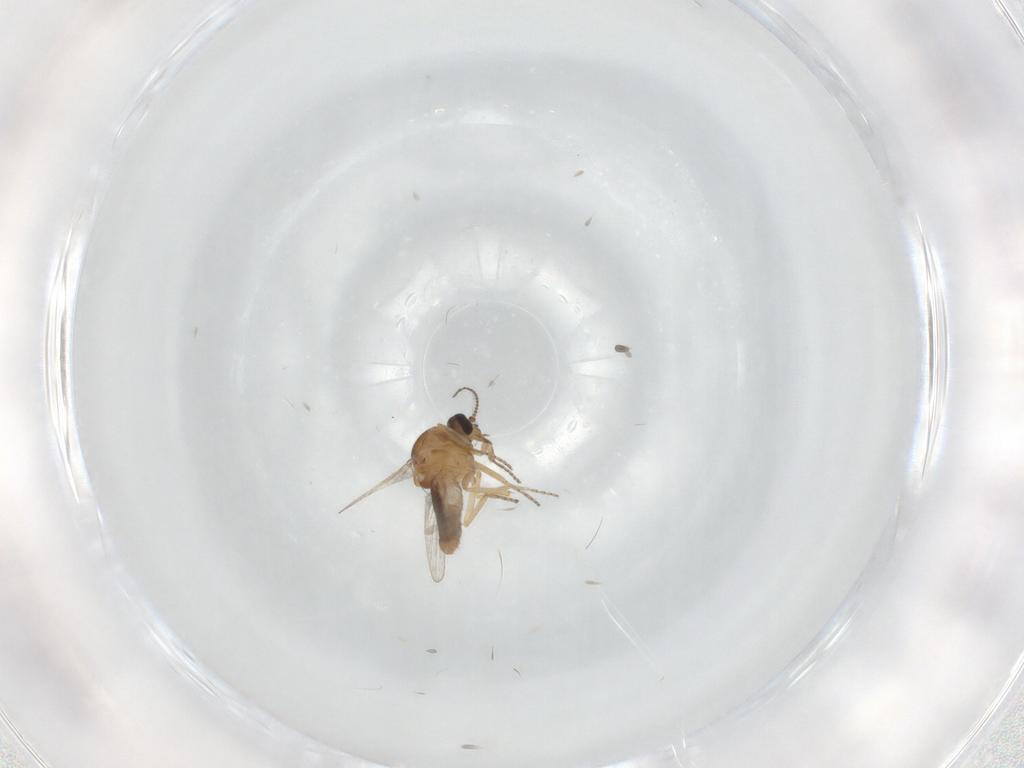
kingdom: Animalia
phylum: Arthropoda
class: Insecta
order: Diptera
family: Ceratopogonidae
